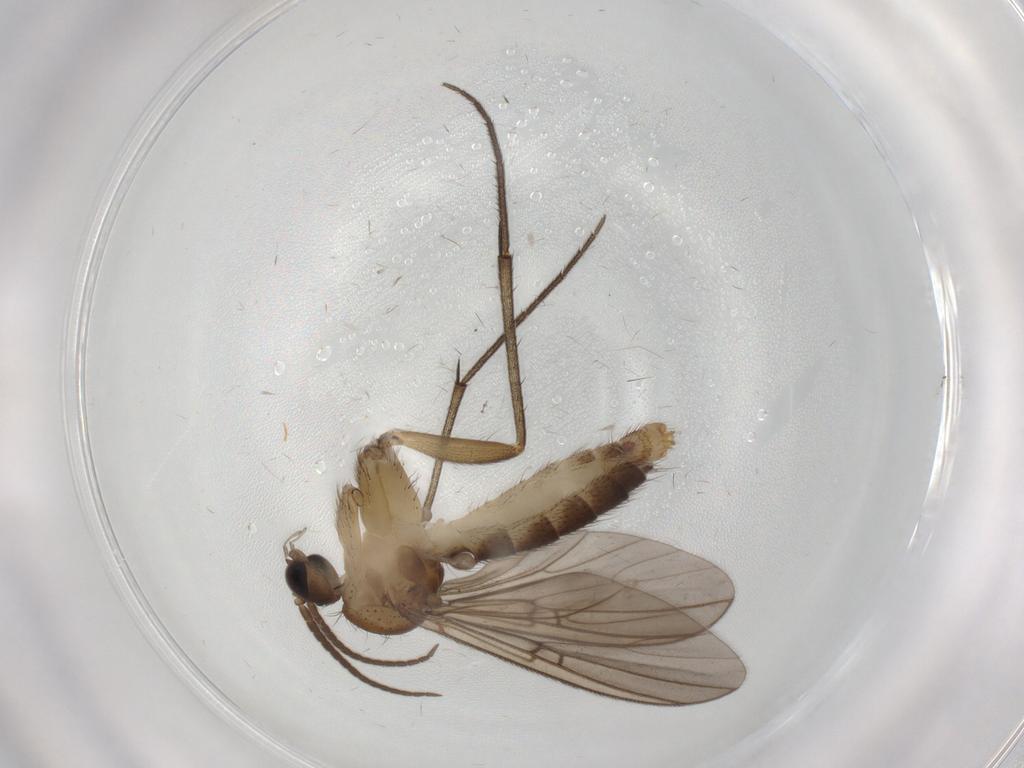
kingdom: Animalia
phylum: Arthropoda
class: Insecta
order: Diptera
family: Mycetophilidae
